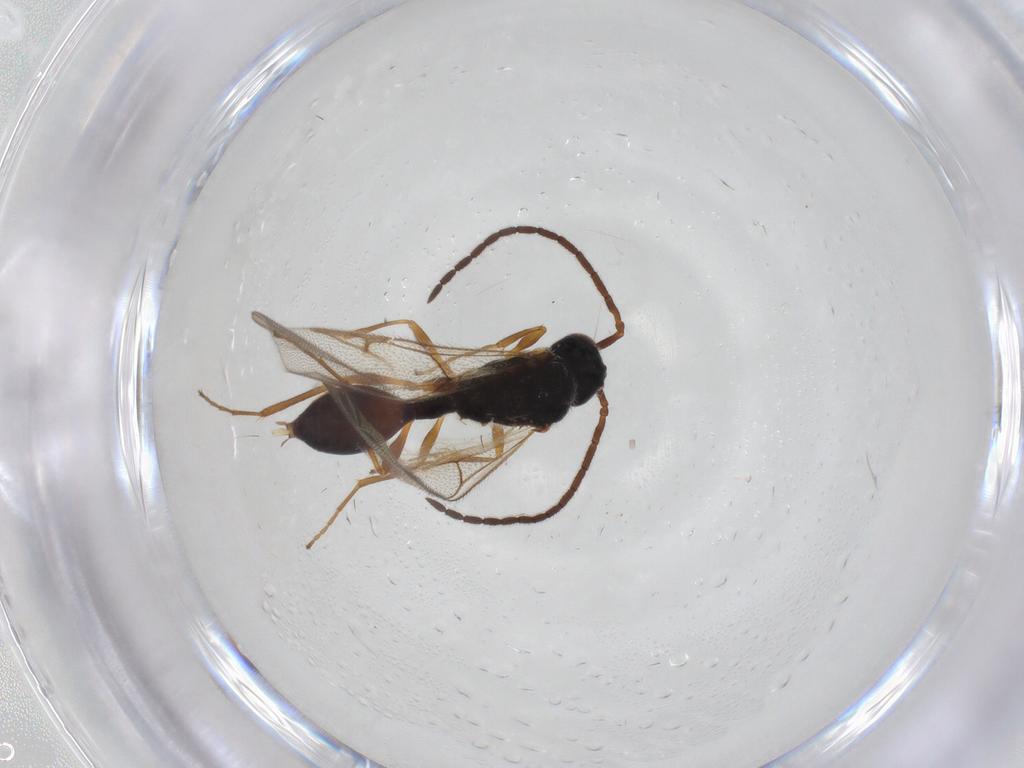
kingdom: Animalia
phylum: Arthropoda
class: Insecta
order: Hymenoptera
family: Diapriidae
